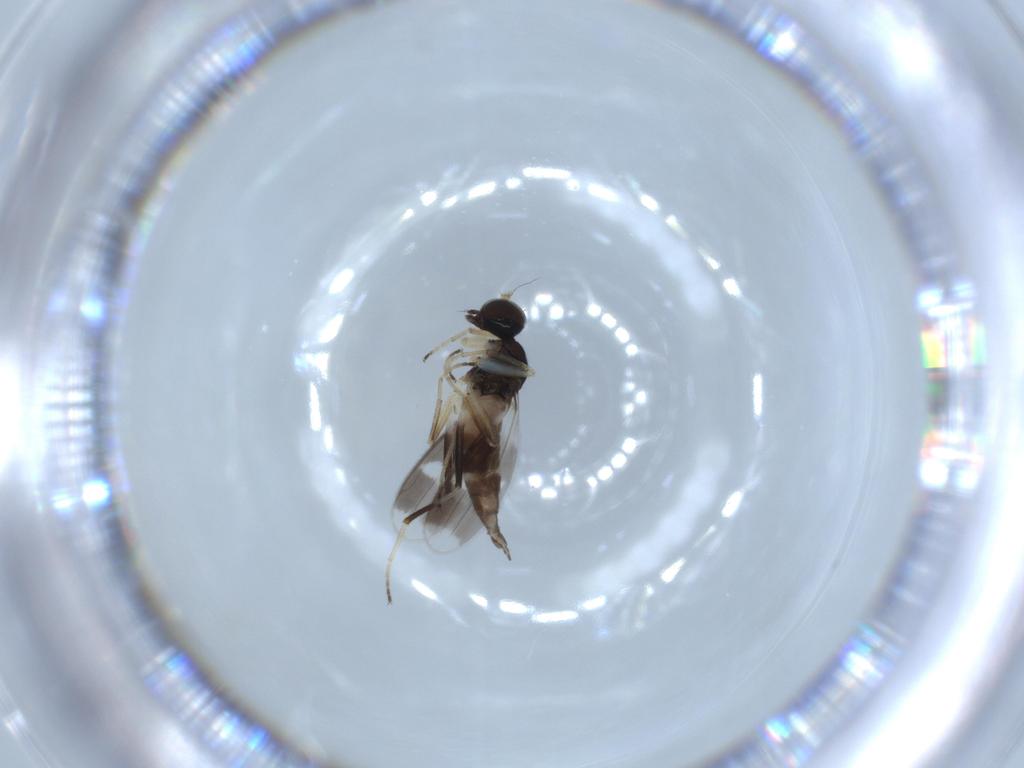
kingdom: Animalia
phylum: Arthropoda
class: Insecta
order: Diptera
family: Hybotidae
